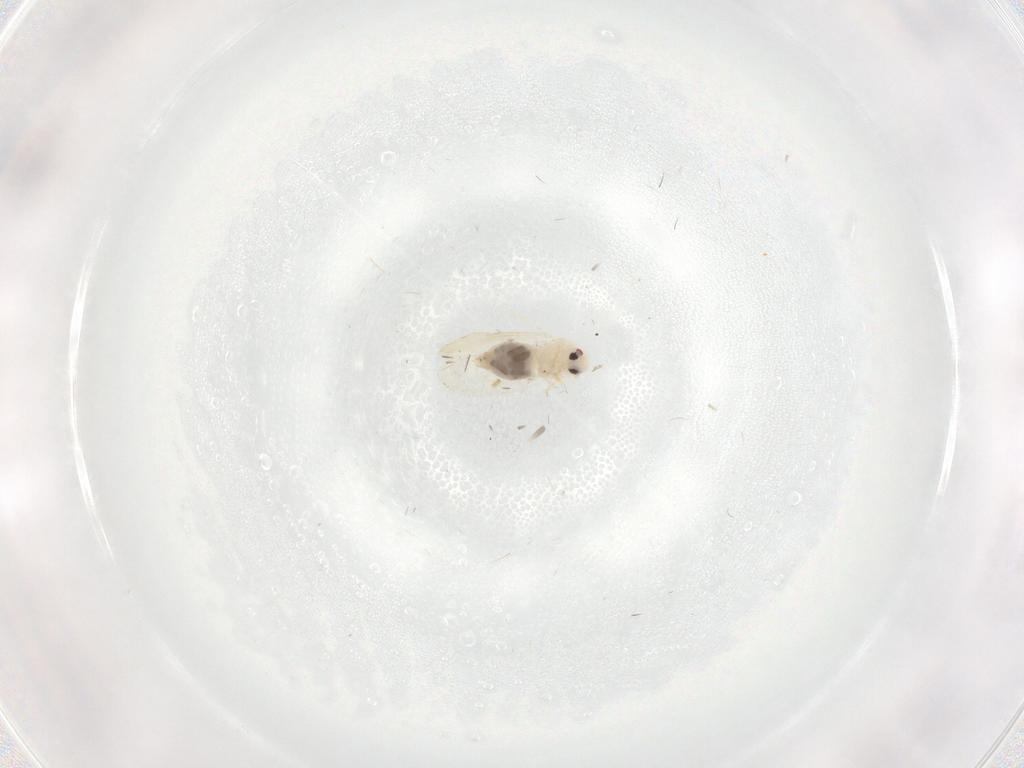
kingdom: Animalia
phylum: Arthropoda
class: Insecta
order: Hemiptera
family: Aleyrodidae
